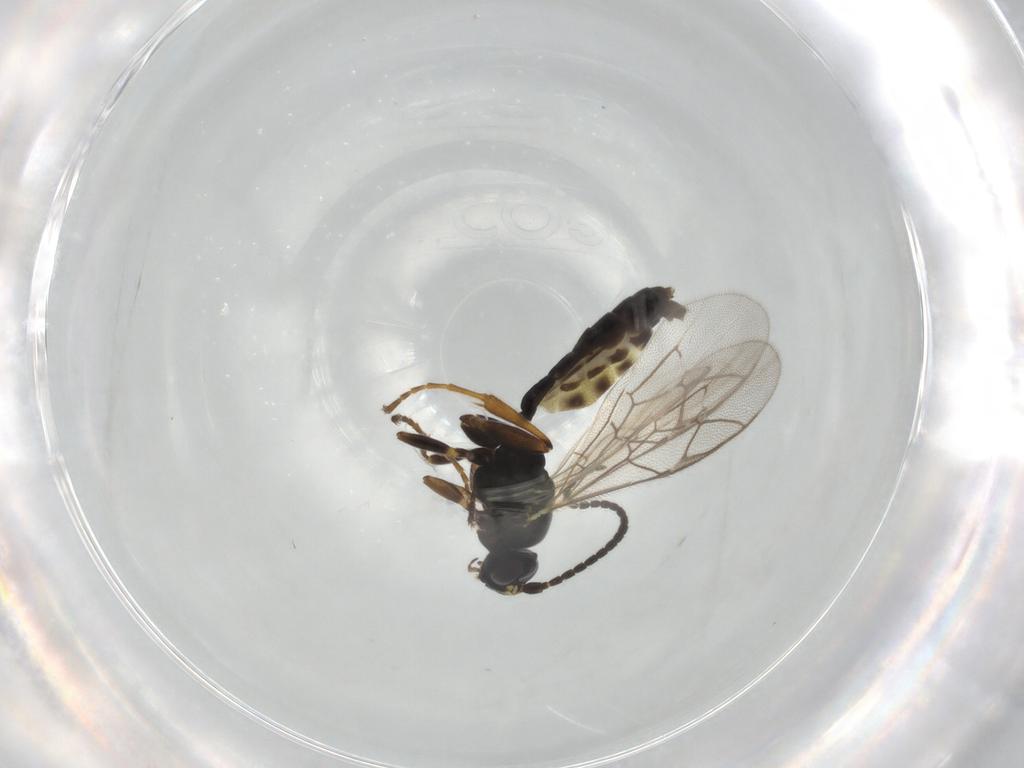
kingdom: Animalia
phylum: Arthropoda
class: Insecta
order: Hymenoptera
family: Ichneumonidae
